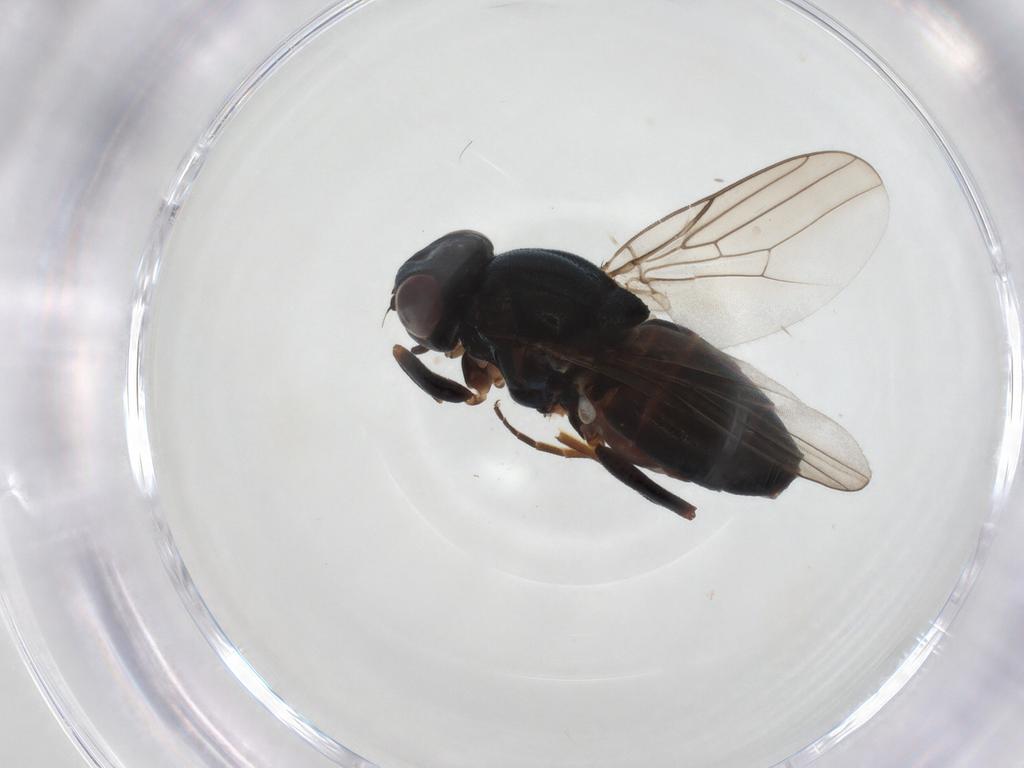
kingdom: Animalia
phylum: Arthropoda
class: Insecta
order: Diptera
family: Chloropidae
